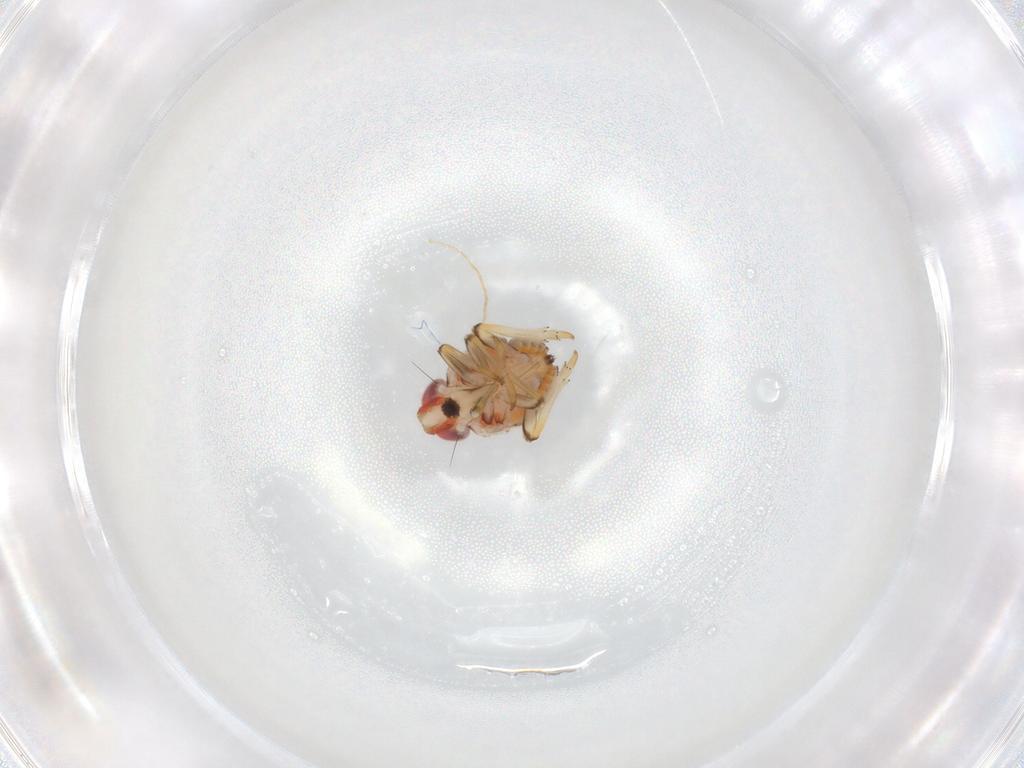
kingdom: Animalia
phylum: Arthropoda
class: Insecta
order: Hemiptera
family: Issidae
